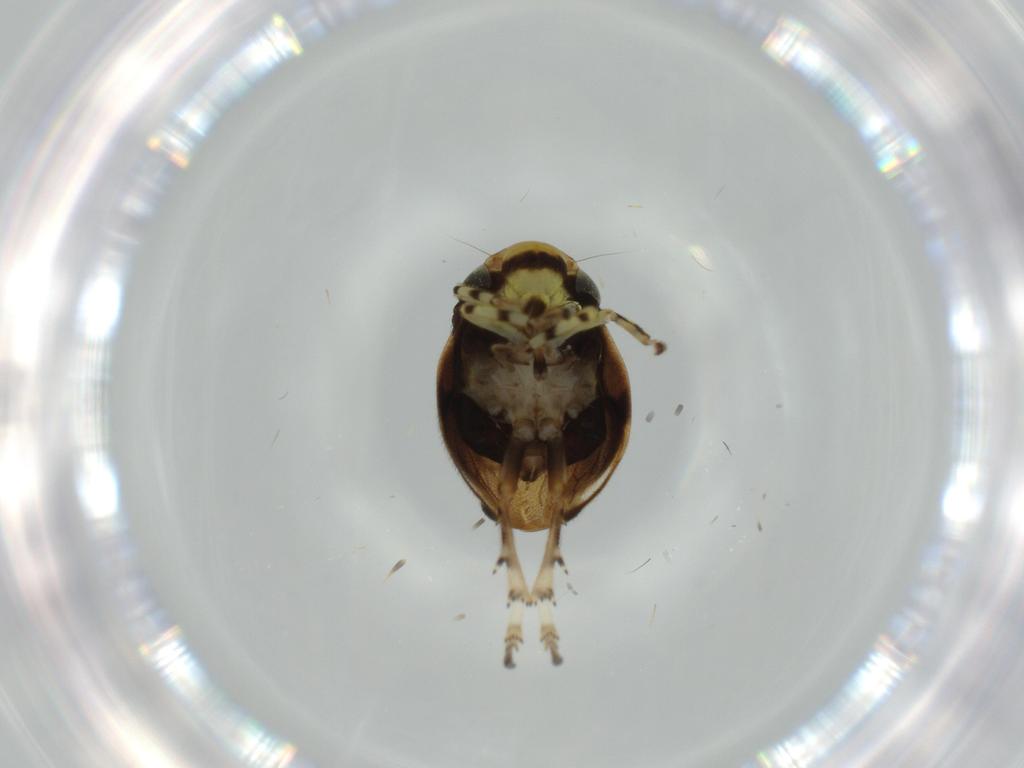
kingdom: Animalia
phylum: Arthropoda
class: Insecta
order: Hemiptera
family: Clastopteridae
